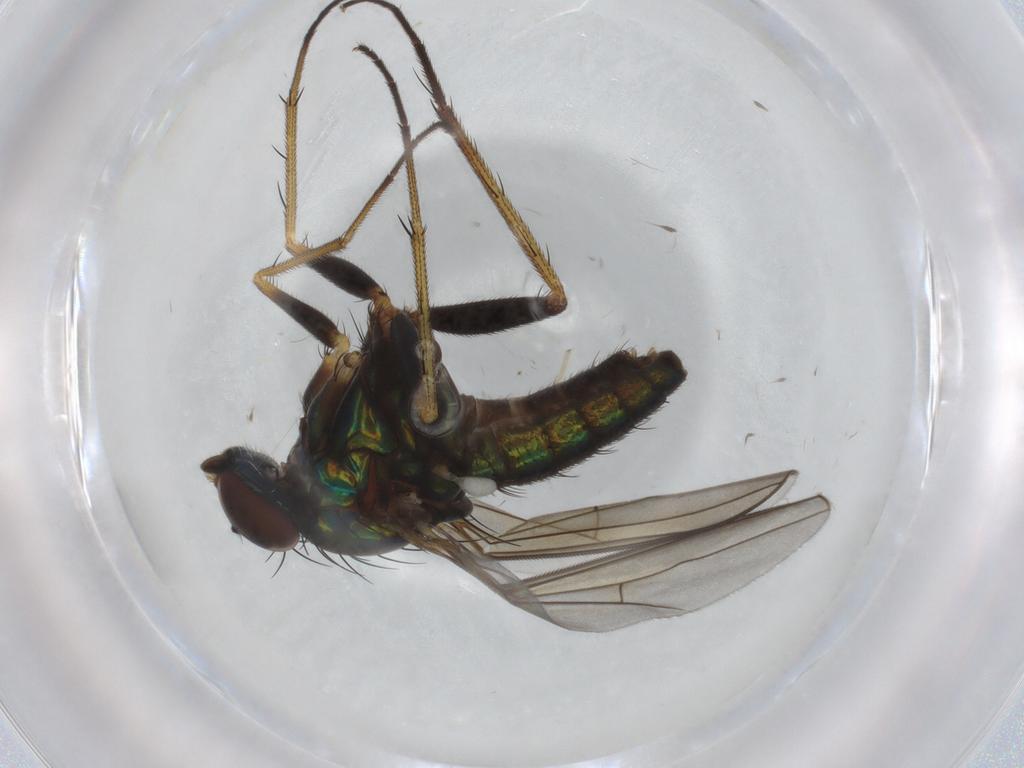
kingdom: Animalia
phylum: Arthropoda
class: Insecta
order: Diptera
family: Dolichopodidae
